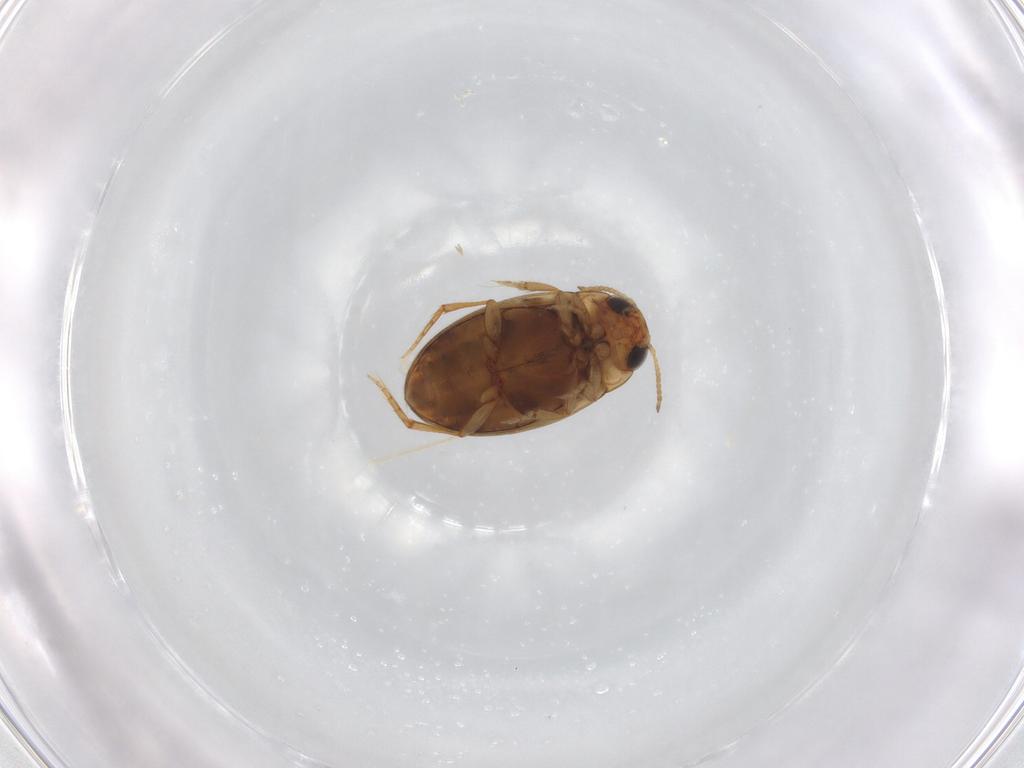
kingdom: Animalia
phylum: Arthropoda
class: Insecta
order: Coleoptera
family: Dytiscidae
